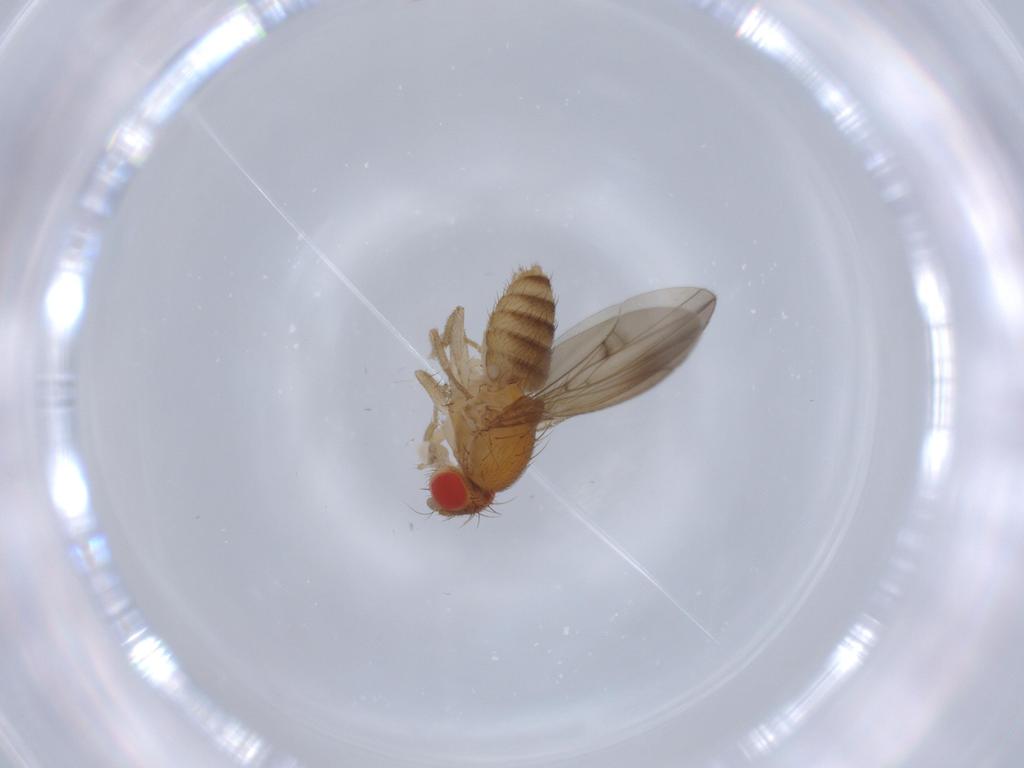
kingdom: Animalia
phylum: Arthropoda
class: Insecta
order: Diptera
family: Drosophilidae
